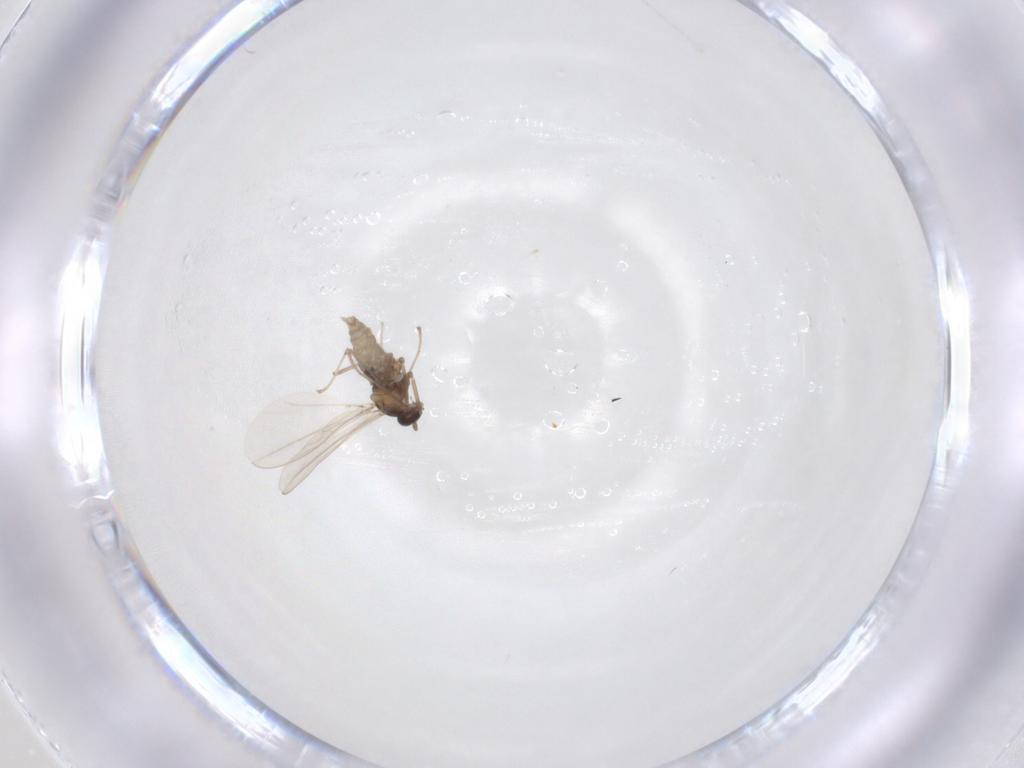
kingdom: Animalia
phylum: Arthropoda
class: Insecta
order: Diptera
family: Cecidomyiidae
